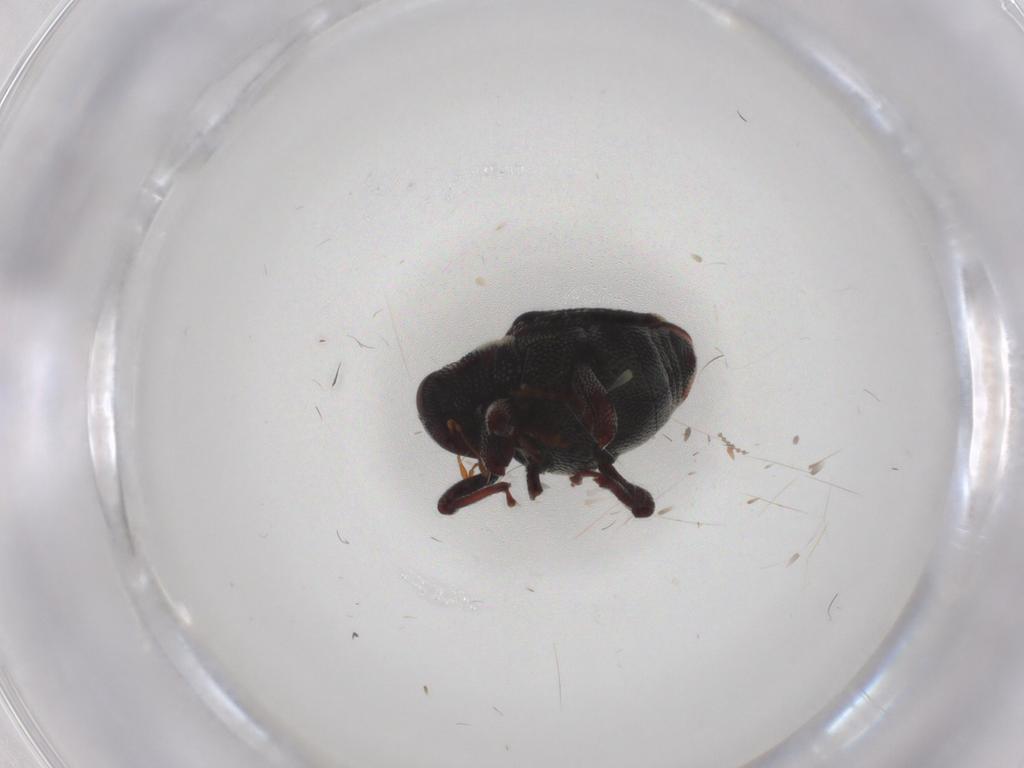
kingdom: Animalia
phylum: Arthropoda
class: Insecta
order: Coleoptera
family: Ptilodactylidae
